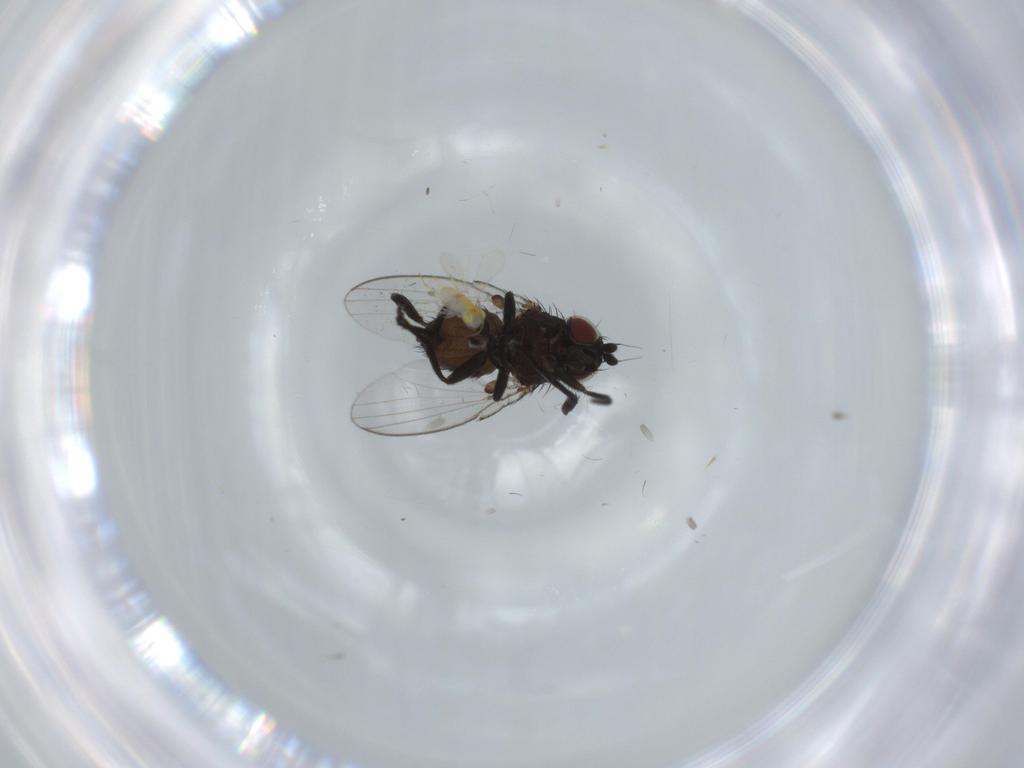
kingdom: Animalia
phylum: Arthropoda
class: Insecta
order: Diptera
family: Milichiidae
